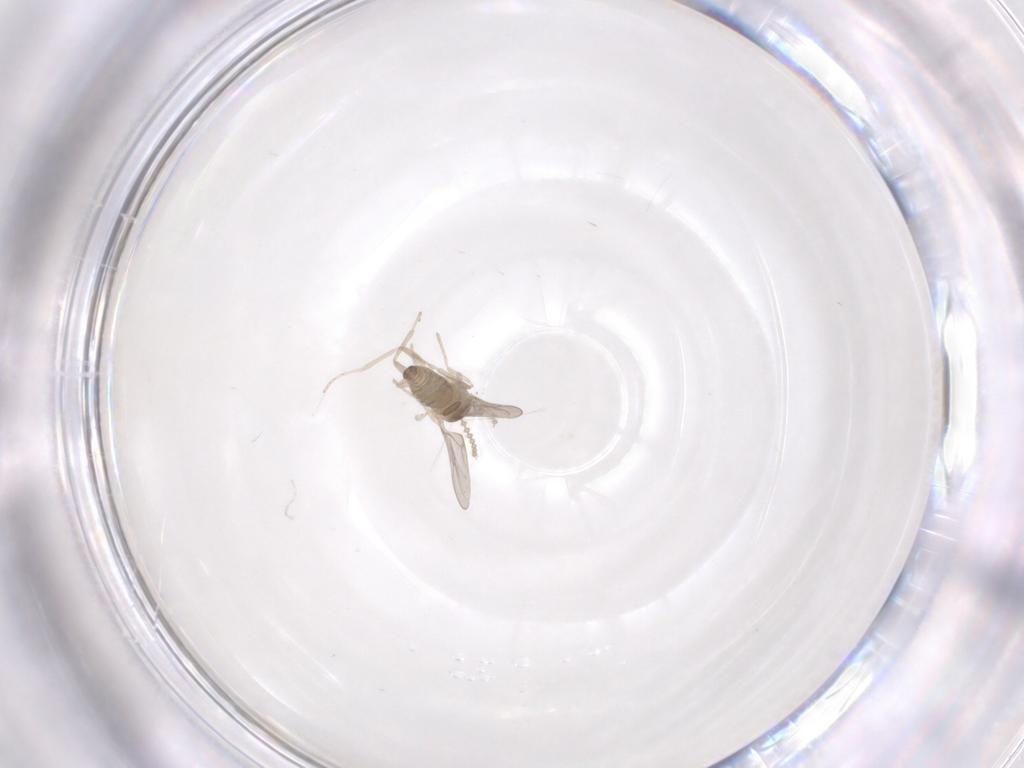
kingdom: Animalia
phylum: Arthropoda
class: Insecta
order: Diptera
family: Cecidomyiidae
